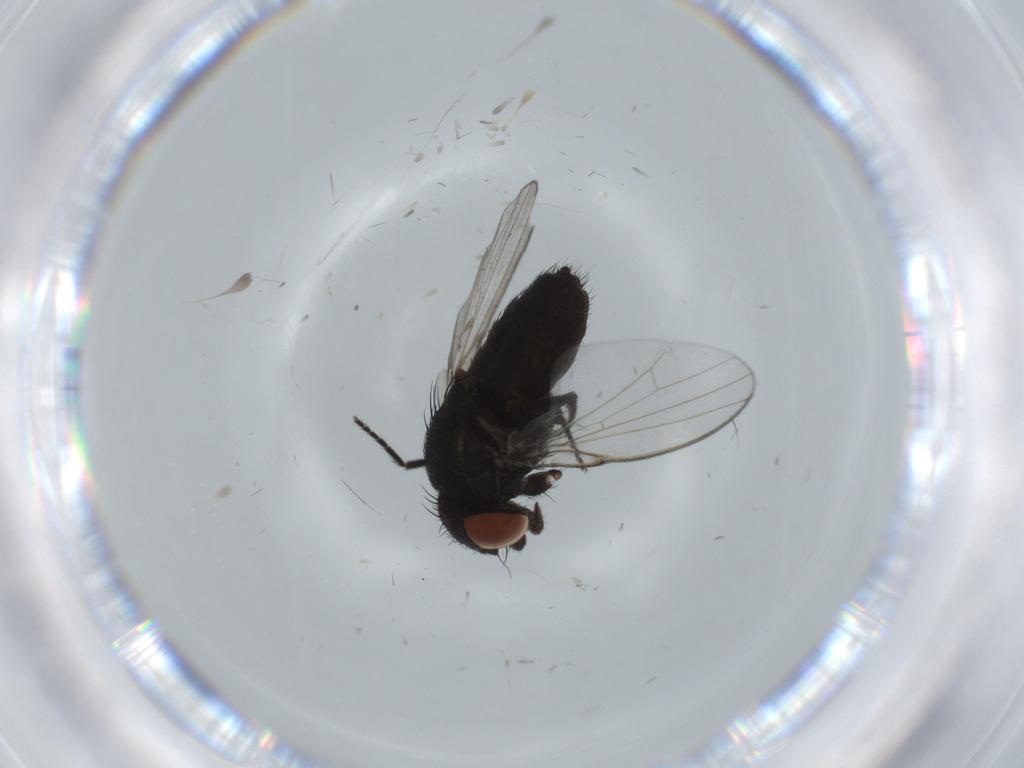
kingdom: Animalia
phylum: Arthropoda
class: Insecta
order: Diptera
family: Milichiidae
